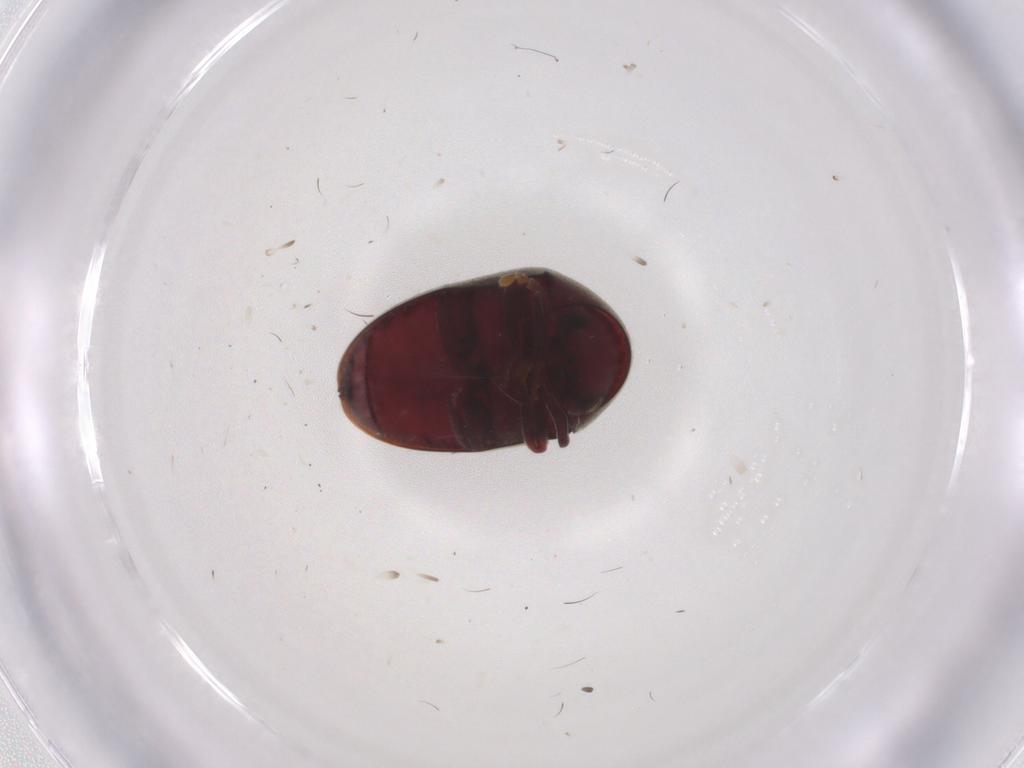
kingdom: Animalia
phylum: Arthropoda
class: Insecta
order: Coleoptera
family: Ptinidae
